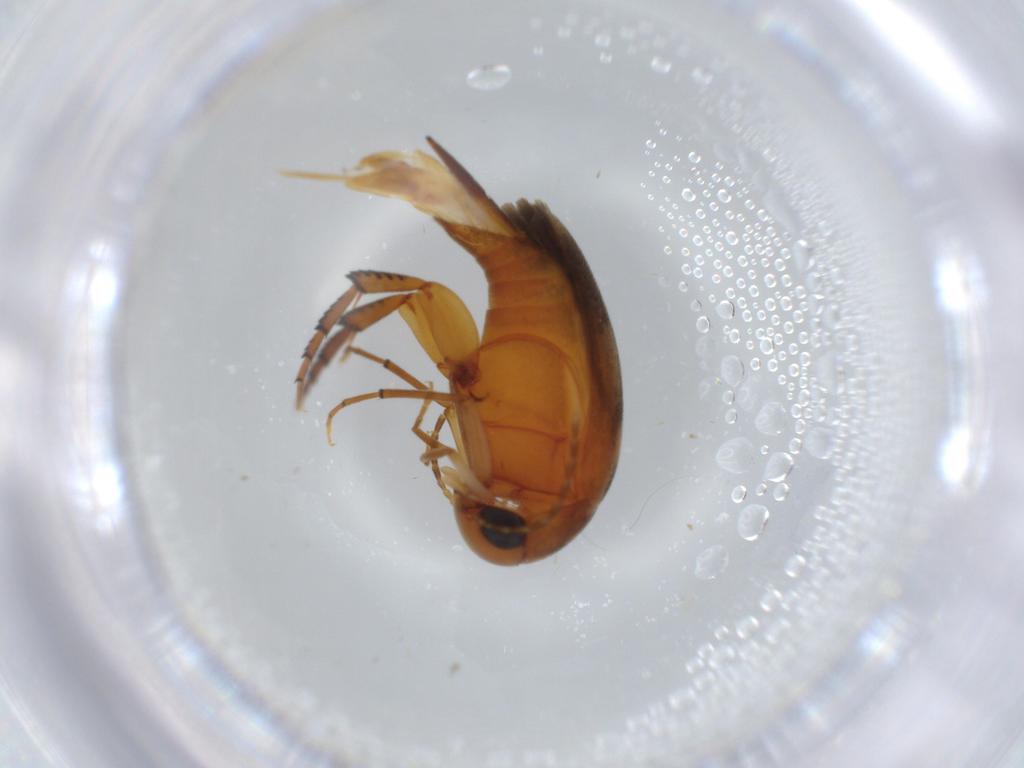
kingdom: Animalia
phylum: Arthropoda
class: Insecta
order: Coleoptera
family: Mordellidae
